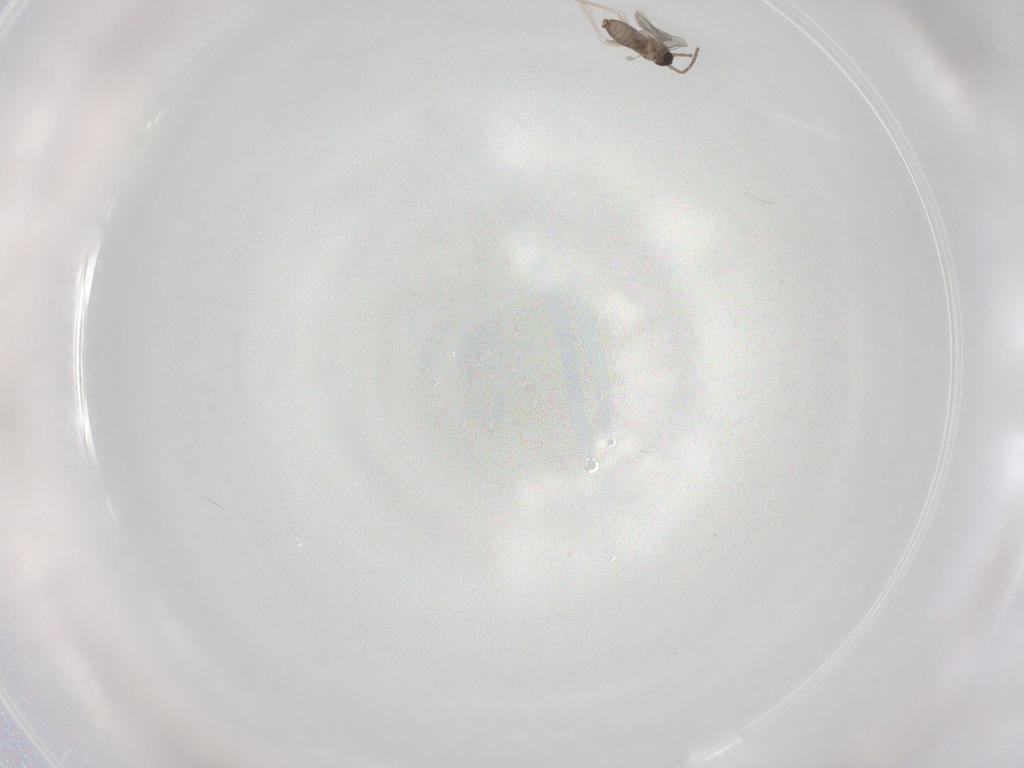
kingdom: Animalia
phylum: Arthropoda
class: Insecta
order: Diptera
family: Cecidomyiidae
